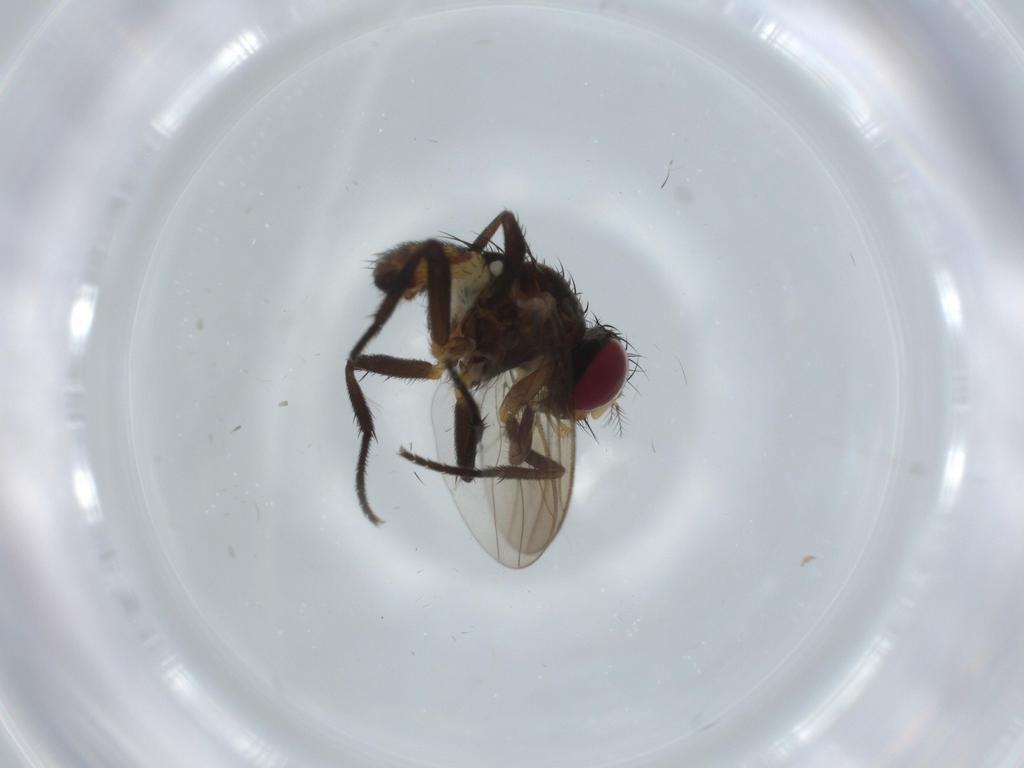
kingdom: Animalia
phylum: Arthropoda
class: Insecta
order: Diptera
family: Anthomyiidae
